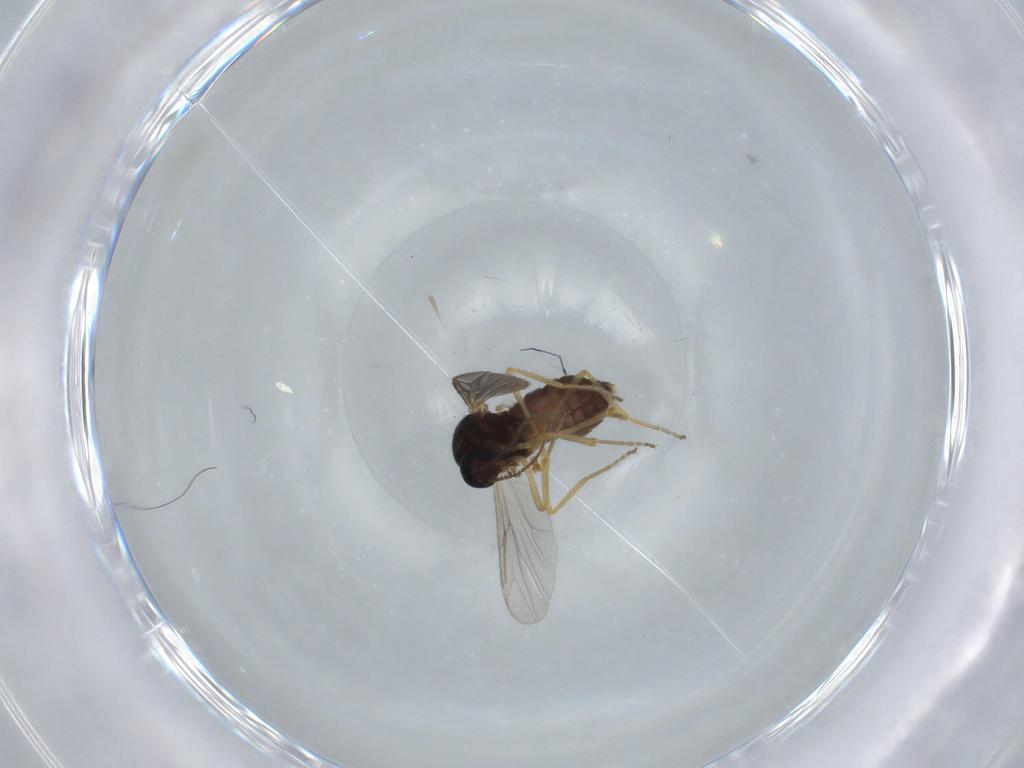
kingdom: Animalia
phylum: Arthropoda
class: Insecta
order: Diptera
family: Ceratopogonidae
